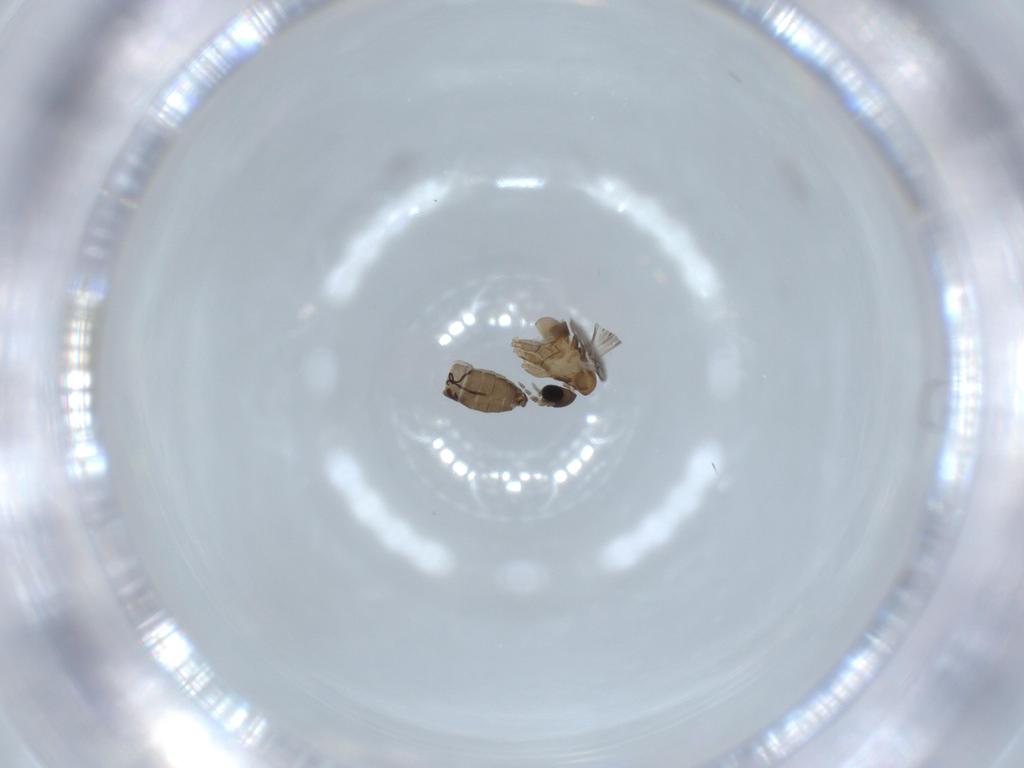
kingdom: Animalia
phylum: Arthropoda
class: Insecta
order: Diptera
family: Psychodidae
